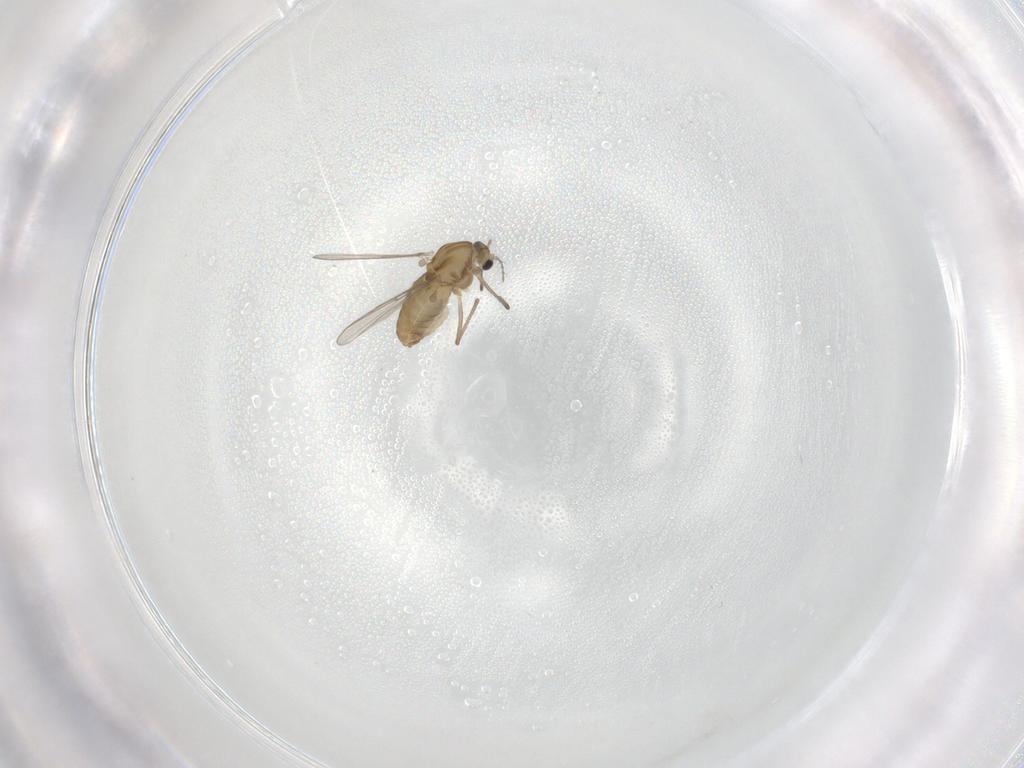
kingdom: Animalia
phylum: Arthropoda
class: Insecta
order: Diptera
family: Chironomidae
